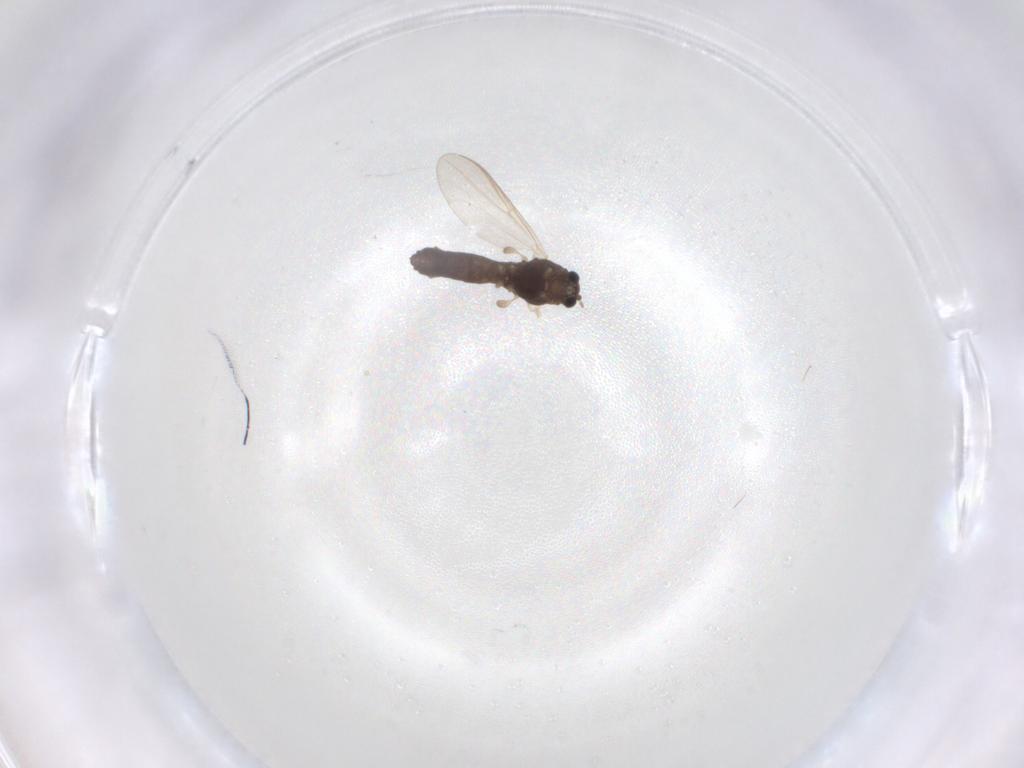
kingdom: Animalia
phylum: Arthropoda
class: Insecta
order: Diptera
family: Chironomidae
